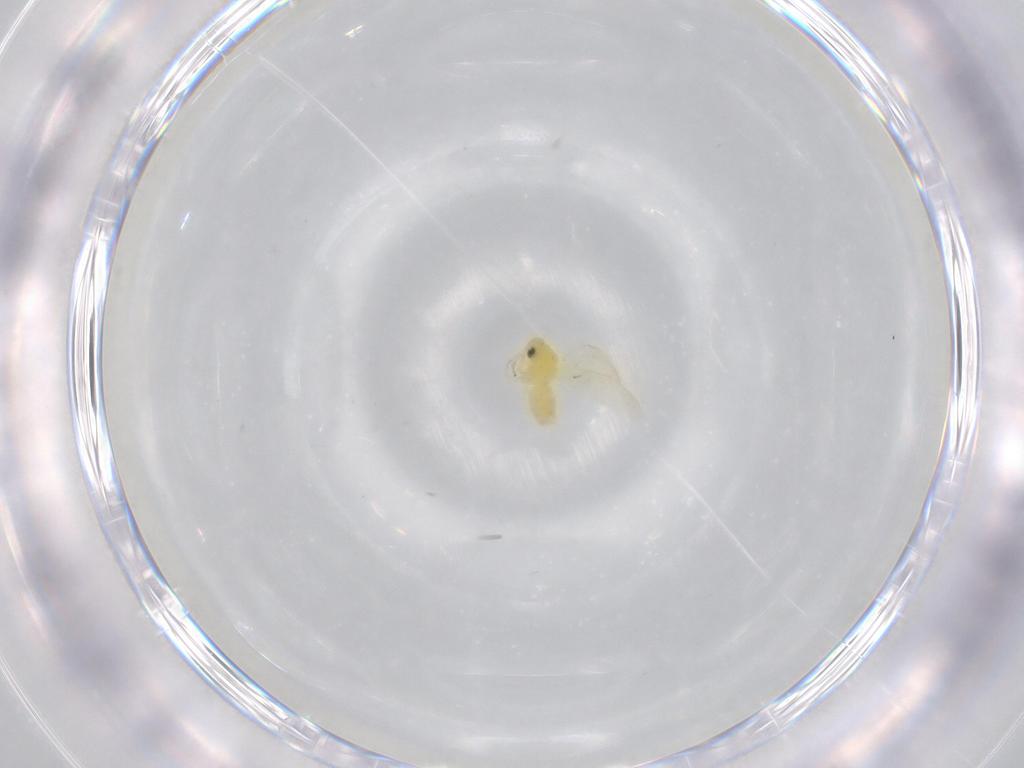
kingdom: Animalia
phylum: Arthropoda
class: Insecta
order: Hemiptera
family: Aleyrodidae
